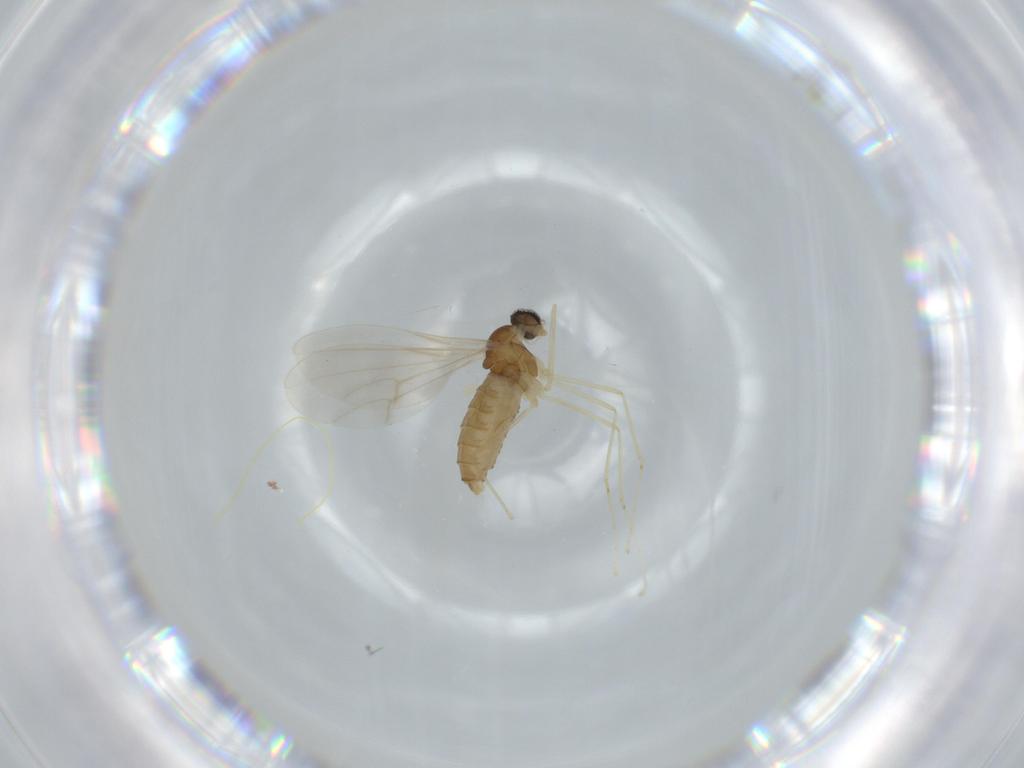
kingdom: Animalia
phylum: Arthropoda
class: Insecta
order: Diptera
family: Cecidomyiidae
